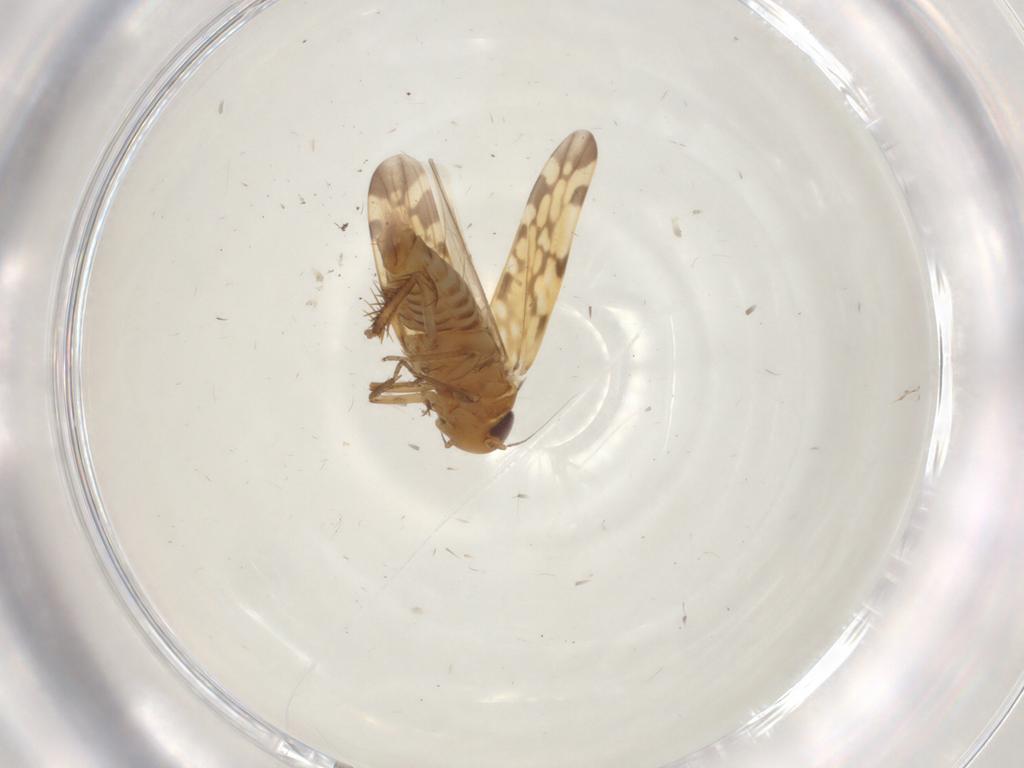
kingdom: Animalia
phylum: Arthropoda
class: Insecta
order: Hemiptera
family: Cicadellidae
